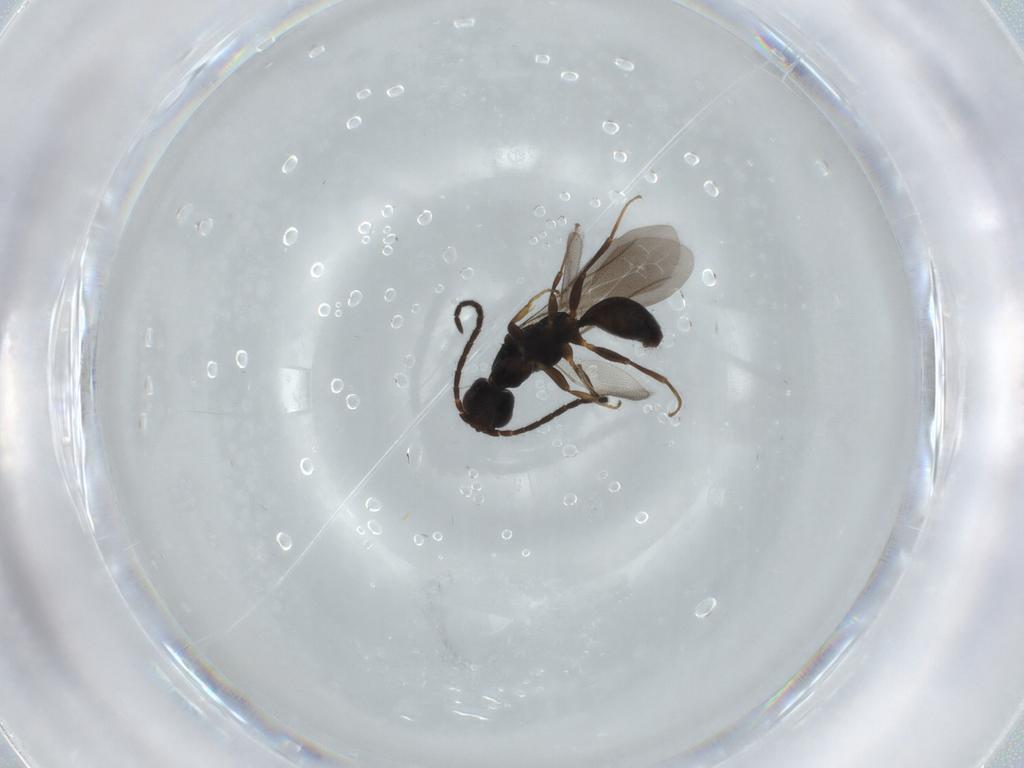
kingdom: Animalia
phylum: Arthropoda
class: Insecta
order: Hymenoptera
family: Bethylidae
